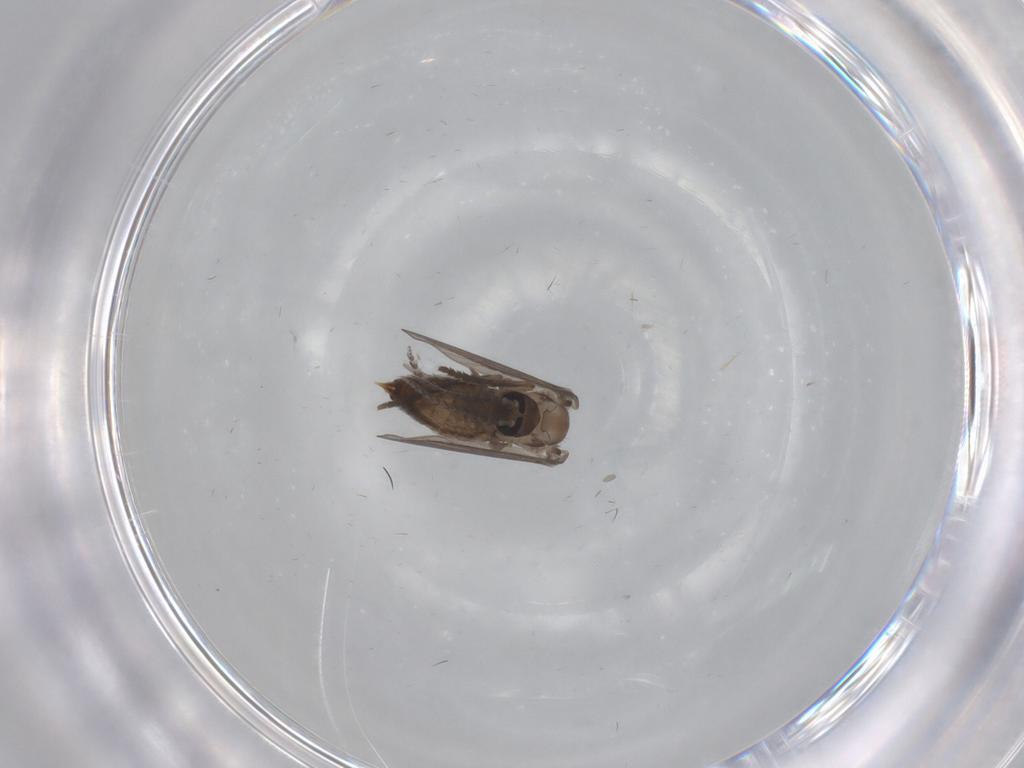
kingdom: Animalia
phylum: Arthropoda
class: Insecta
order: Diptera
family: Psychodidae
